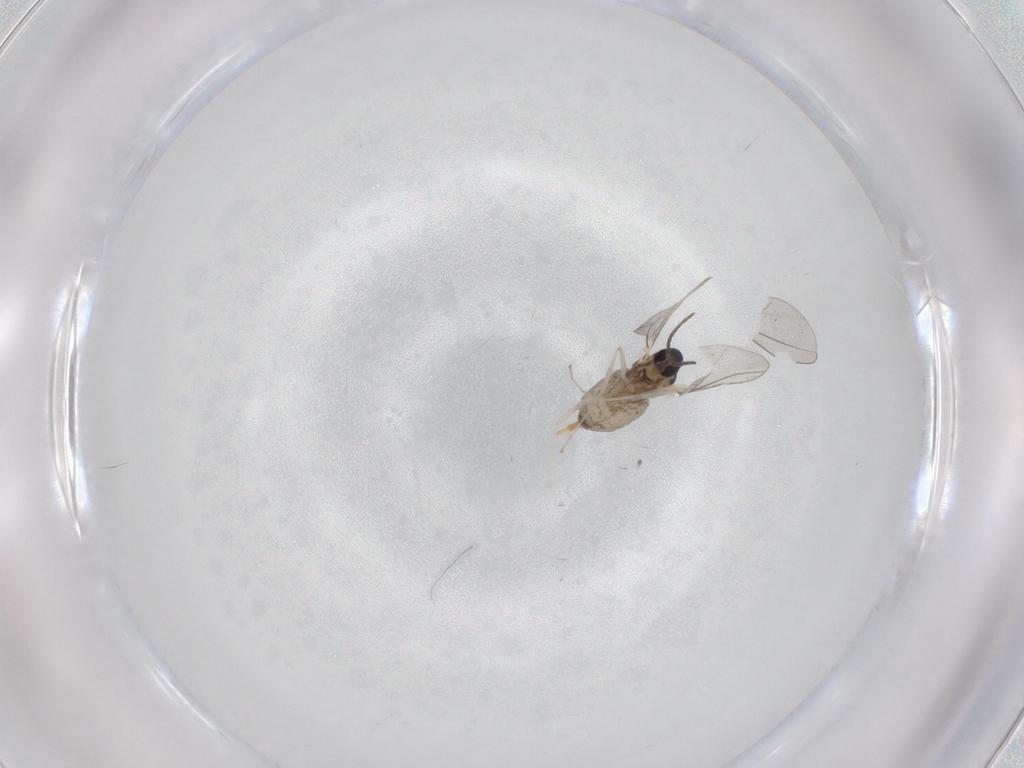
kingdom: Animalia
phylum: Arthropoda
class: Insecta
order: Diptera
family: Cecidomyiidae
